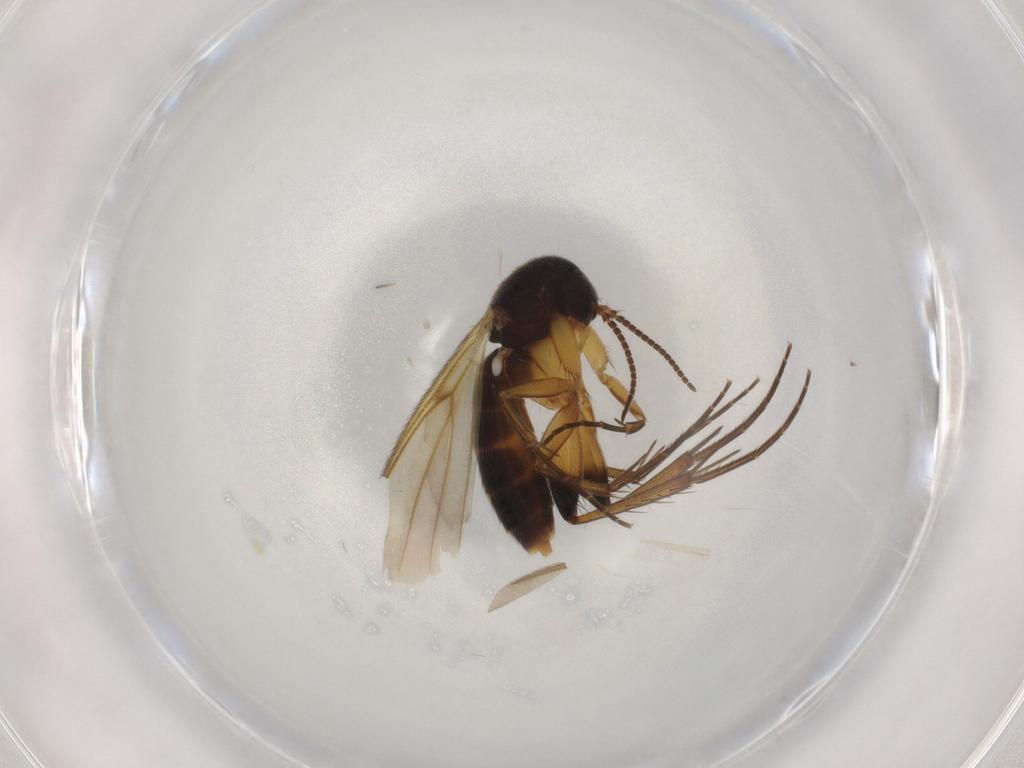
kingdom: Animalia
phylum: Arthropoda
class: Insecta
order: Diptera
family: Mycetophilidae
